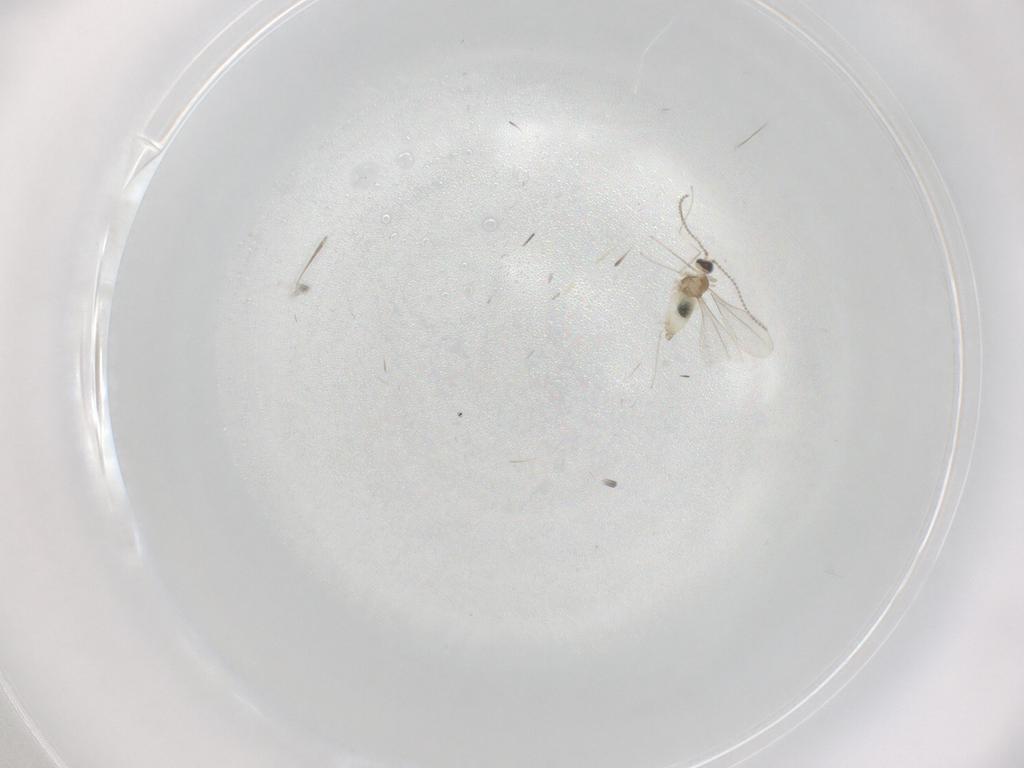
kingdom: Animalia
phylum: Arthropoda
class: Insecta
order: Diptera
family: Cecidomyiidae
